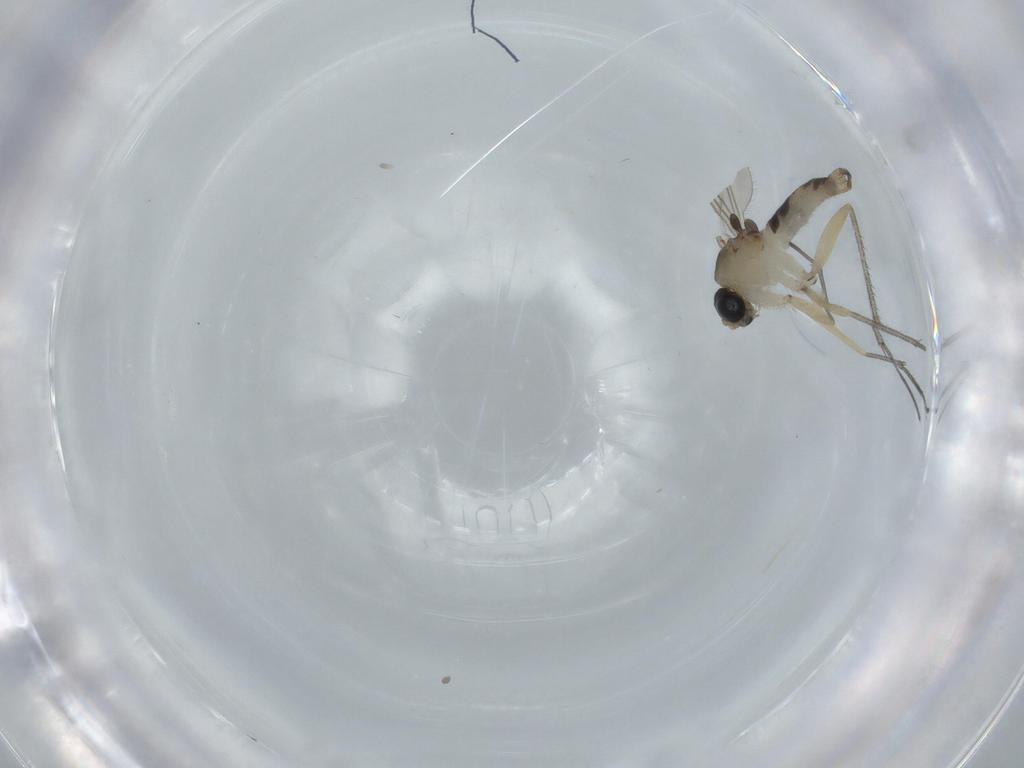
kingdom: Animalia
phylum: Arthropoda
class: Insecta
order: Diptera
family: Sciaridae
